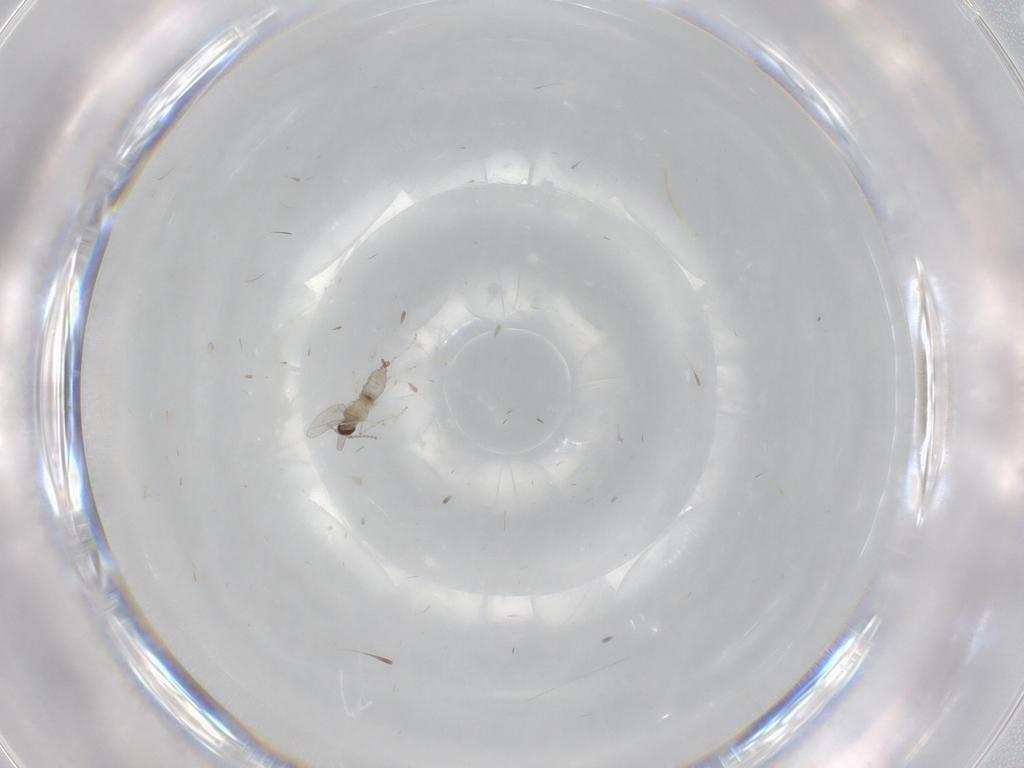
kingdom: Animalia
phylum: Arthropoda
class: Insecta
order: Diptera
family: Cecidomyiidae
